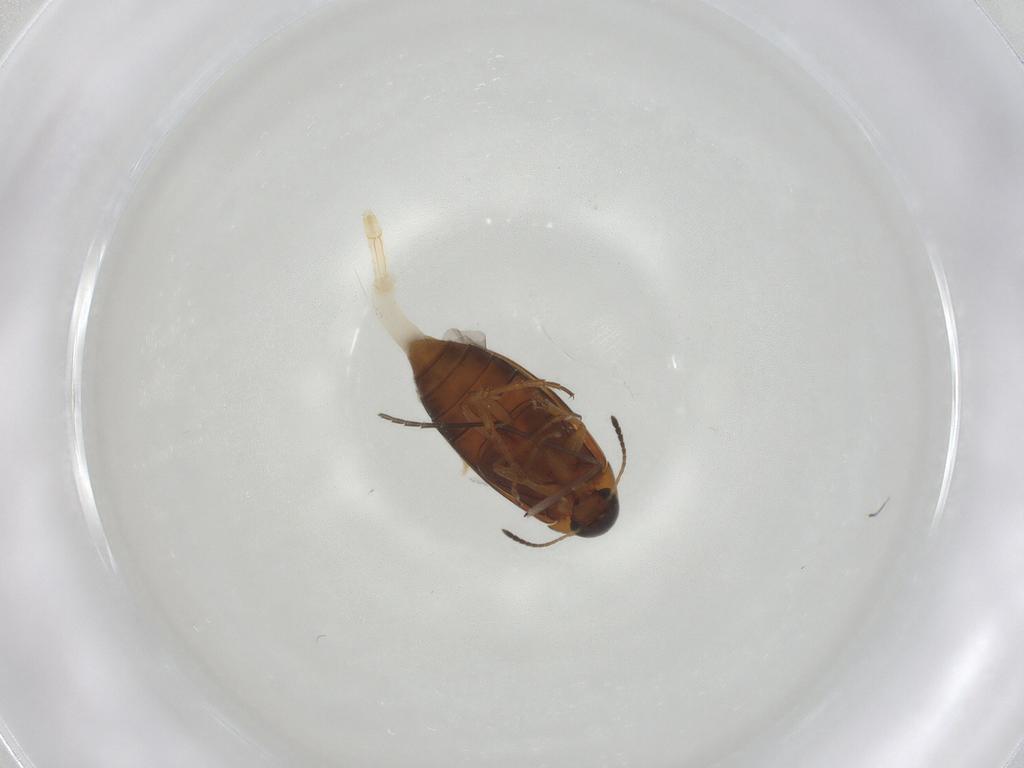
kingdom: Animalia
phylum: Arthropoda
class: Insecta
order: Coleoptera
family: Scraptiidae
